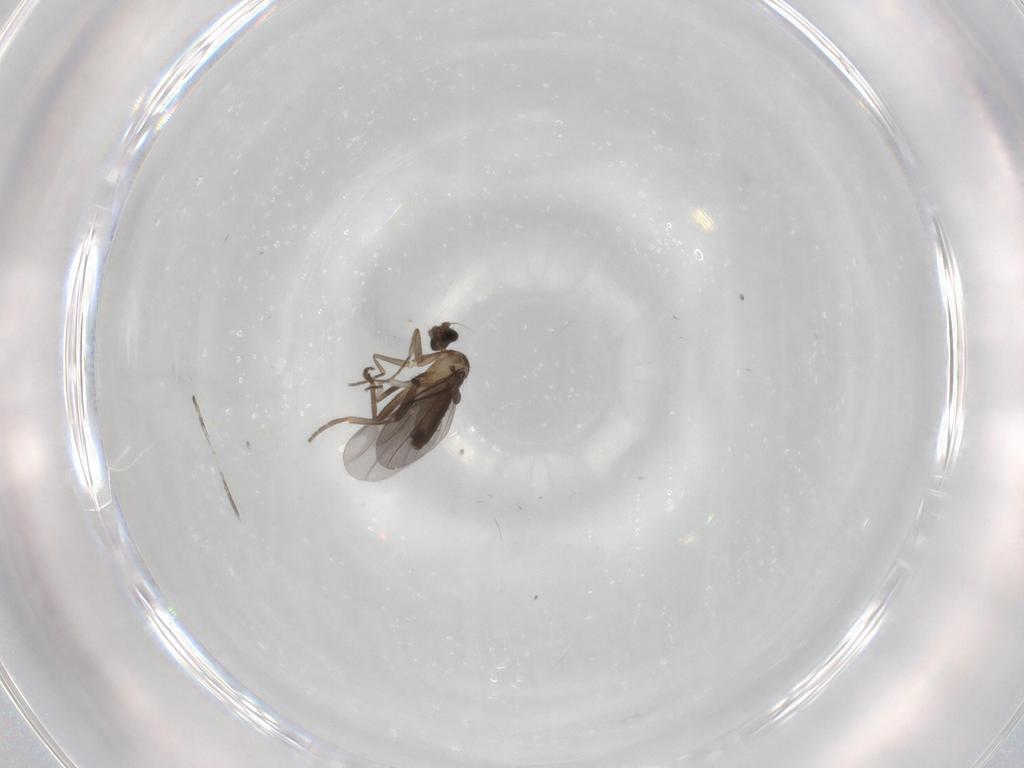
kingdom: Animalia
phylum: Arthropoda
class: Insecta
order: Diptera
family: Phoridae
